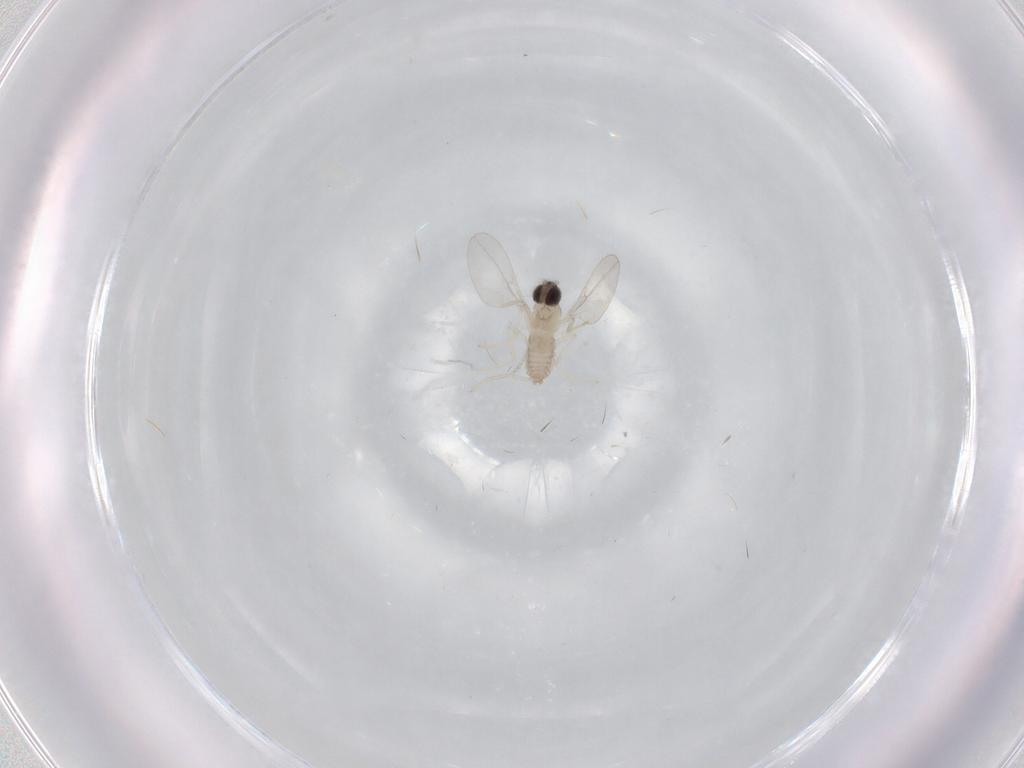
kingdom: Animalia
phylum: Arthropoda
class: Insecta
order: Diptera
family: Cecidomyiidae
